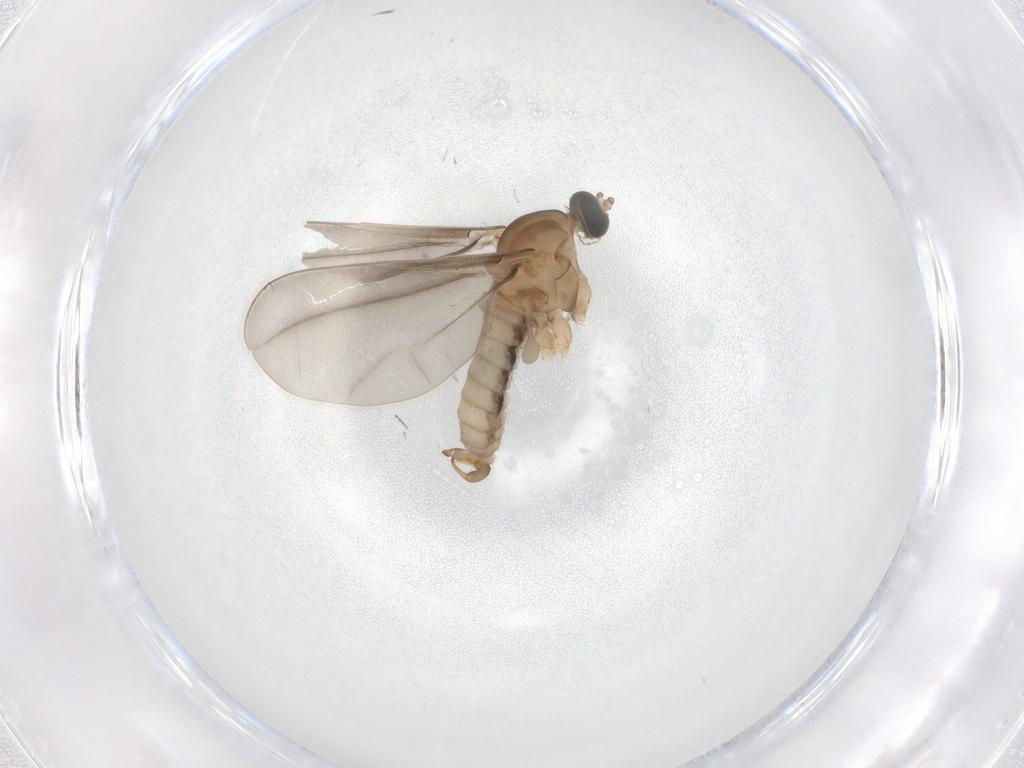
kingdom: Animalia
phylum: Arthropoda
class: Insecta
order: Diptera
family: Cecidomyiidae
